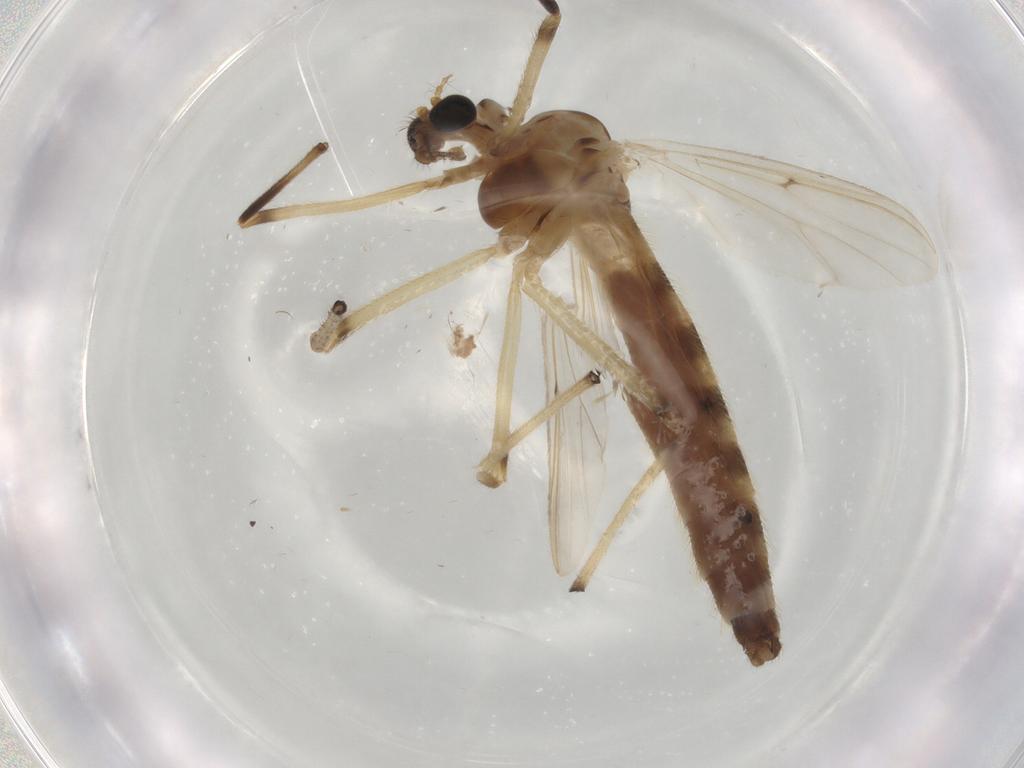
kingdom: Animalia
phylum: Arthropoda
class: Insecta
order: Diptera
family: Chironomidae
